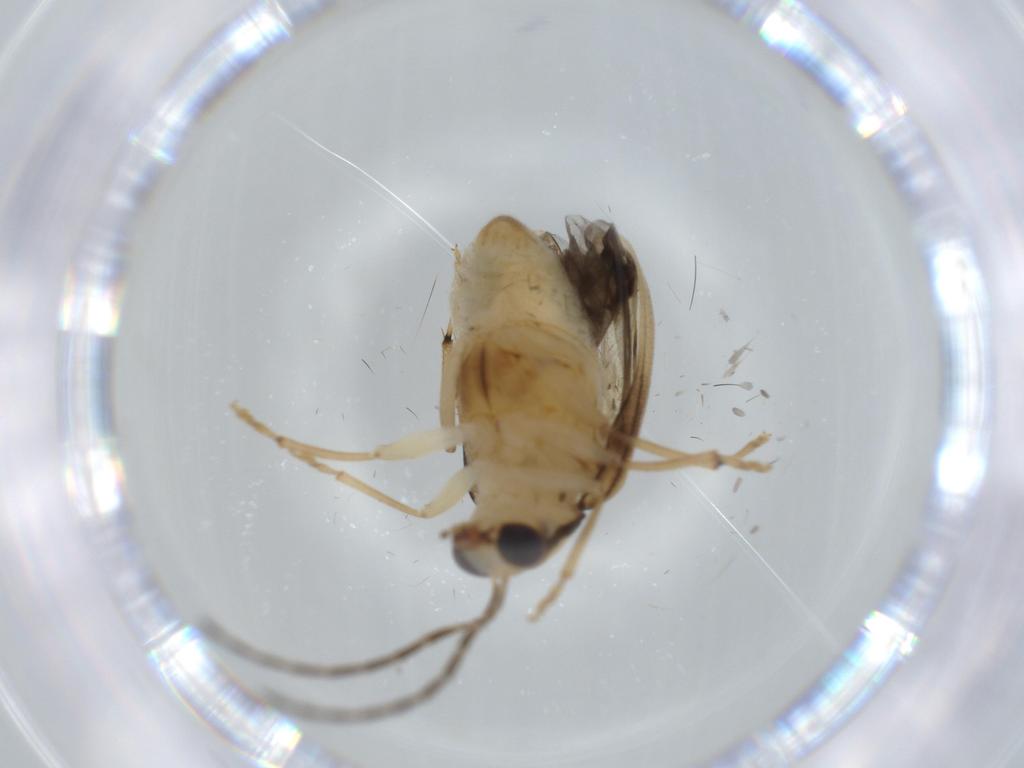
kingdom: Animalia
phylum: Arthropoda
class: Insecta
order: Coleoptera
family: Chrysomelidae
